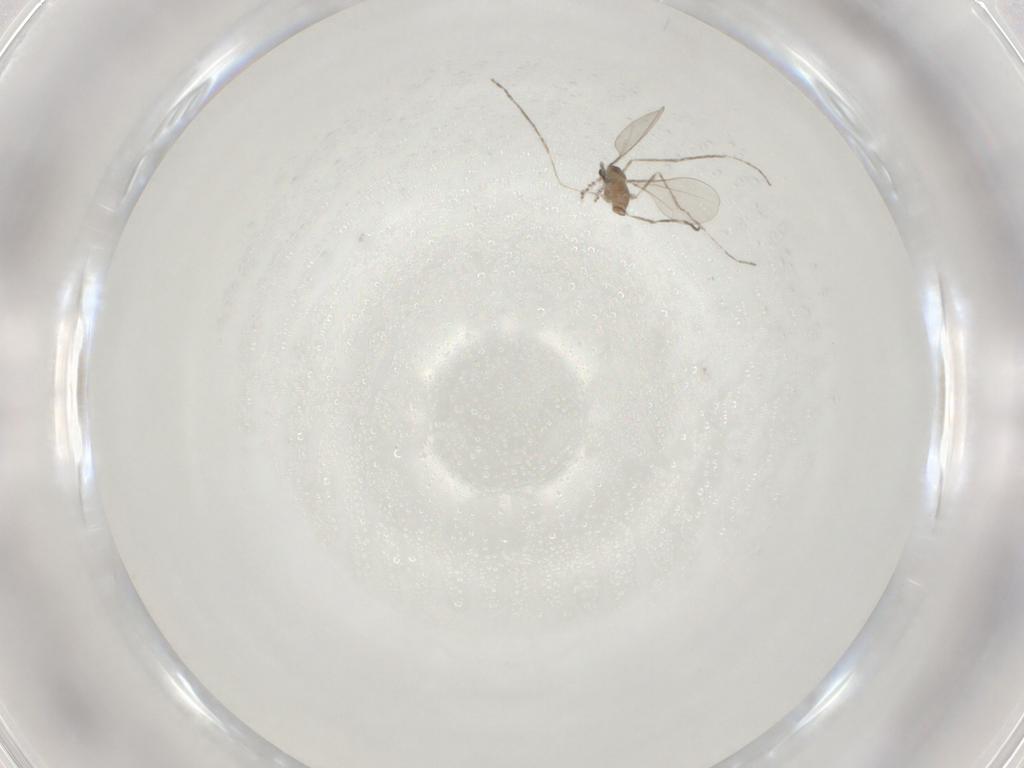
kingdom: Animalia
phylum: Arthropoda
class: Insecta
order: Diptera
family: Cecidomyiidae
